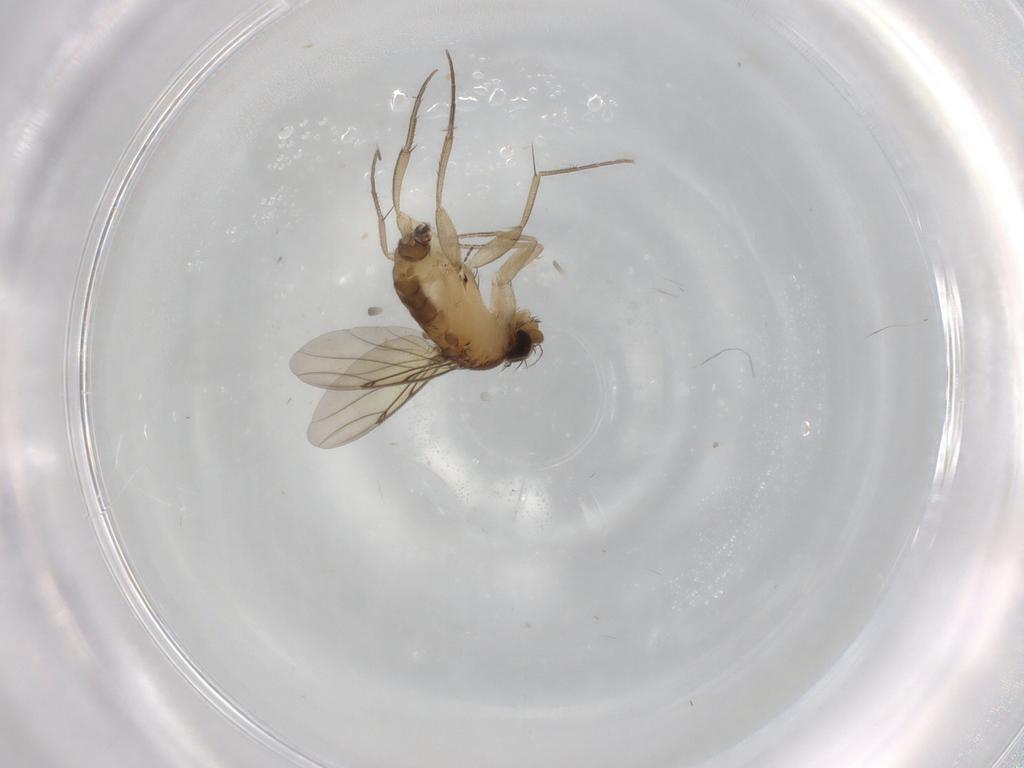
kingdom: Animalia
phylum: Arthropoda
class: Insecta
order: Diptera
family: Cecidomyiidae
